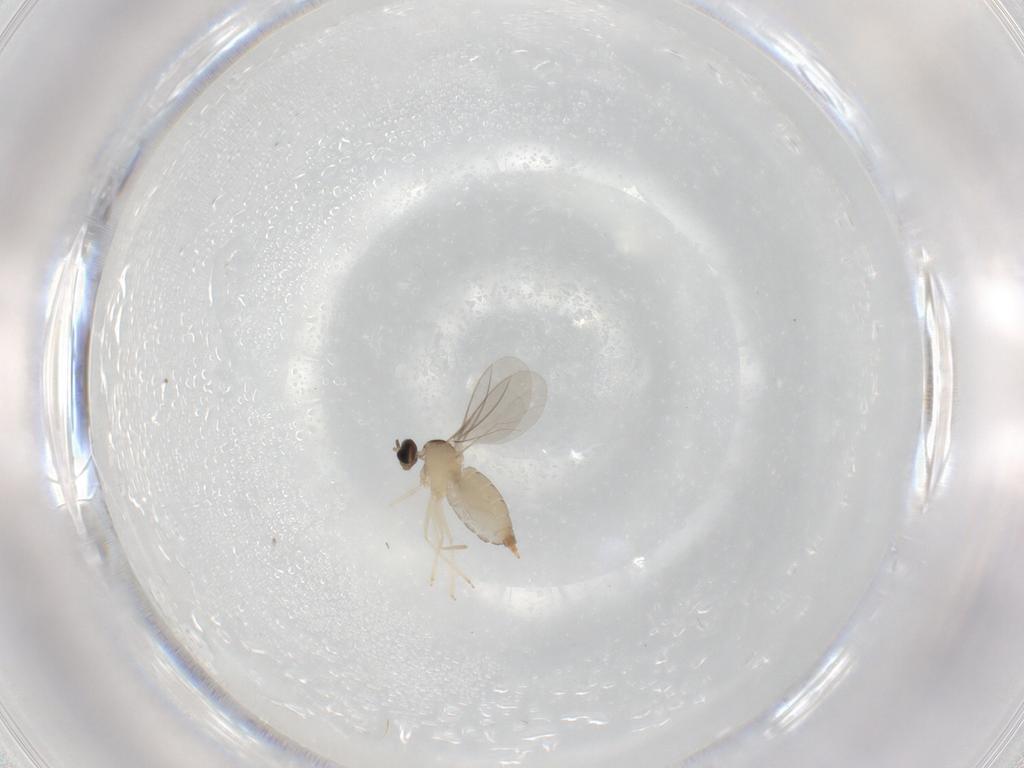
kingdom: Animalia
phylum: Arthropoda
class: Insecta
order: Diptera
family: Cecidomyiidae
